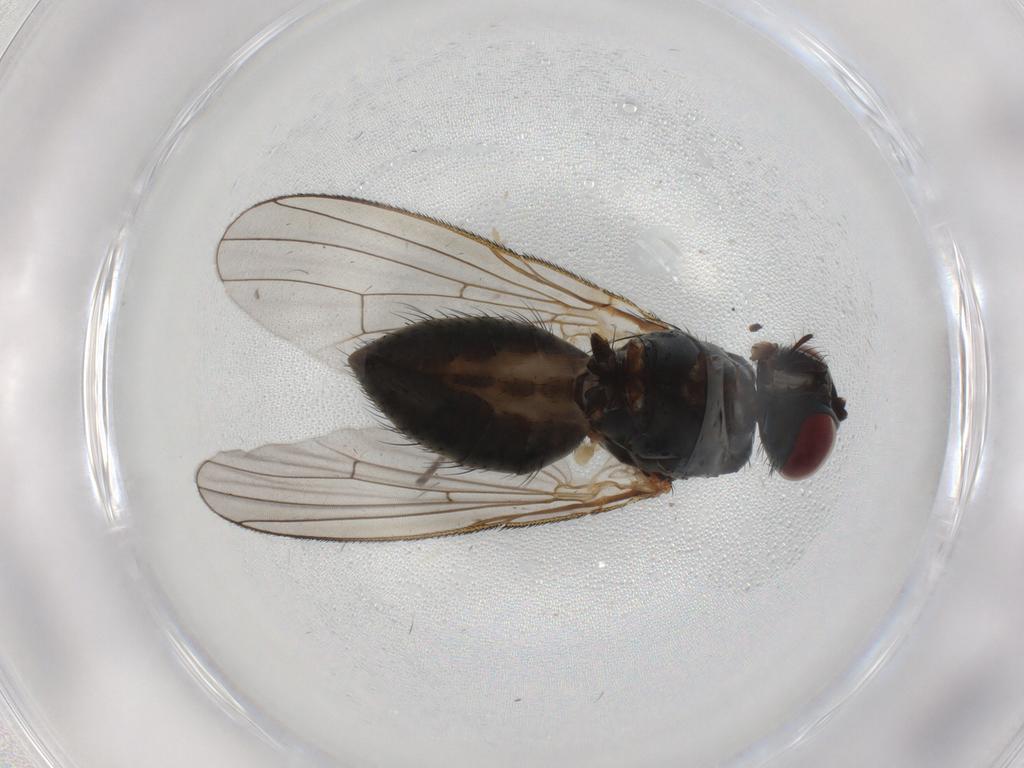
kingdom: Animalia
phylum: Arthropoda
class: Insecta
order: Diptera
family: Muscidae
